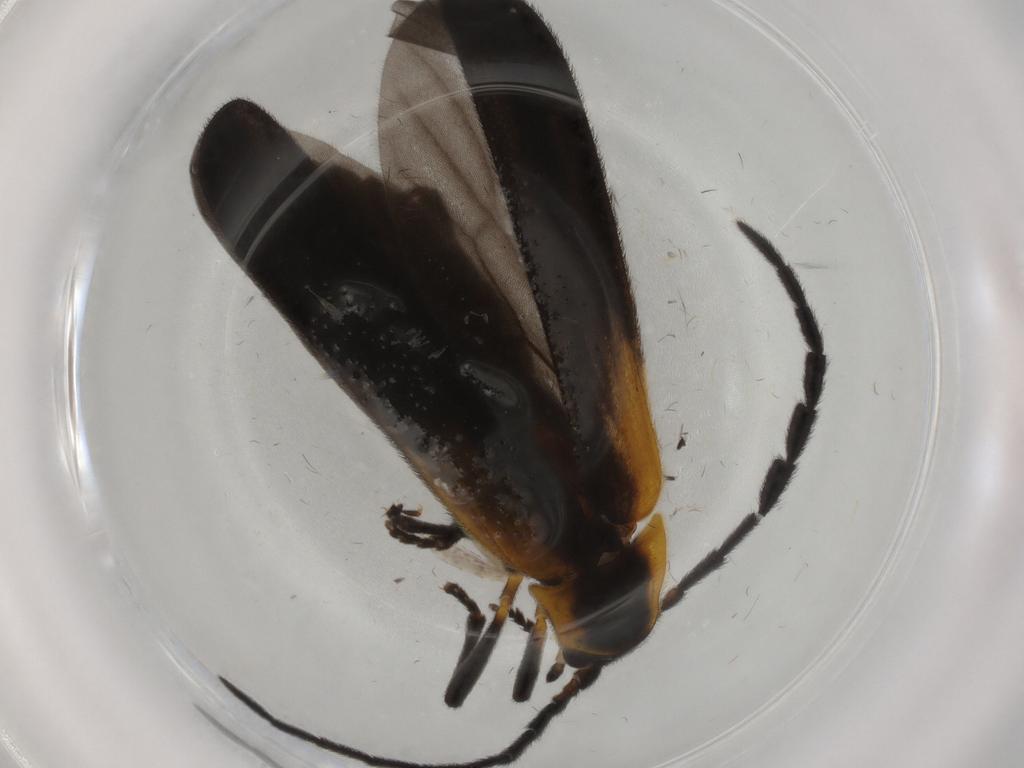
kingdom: Animalia
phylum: Arthropoda
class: Insecta
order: Coleoptera
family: Lycidae
